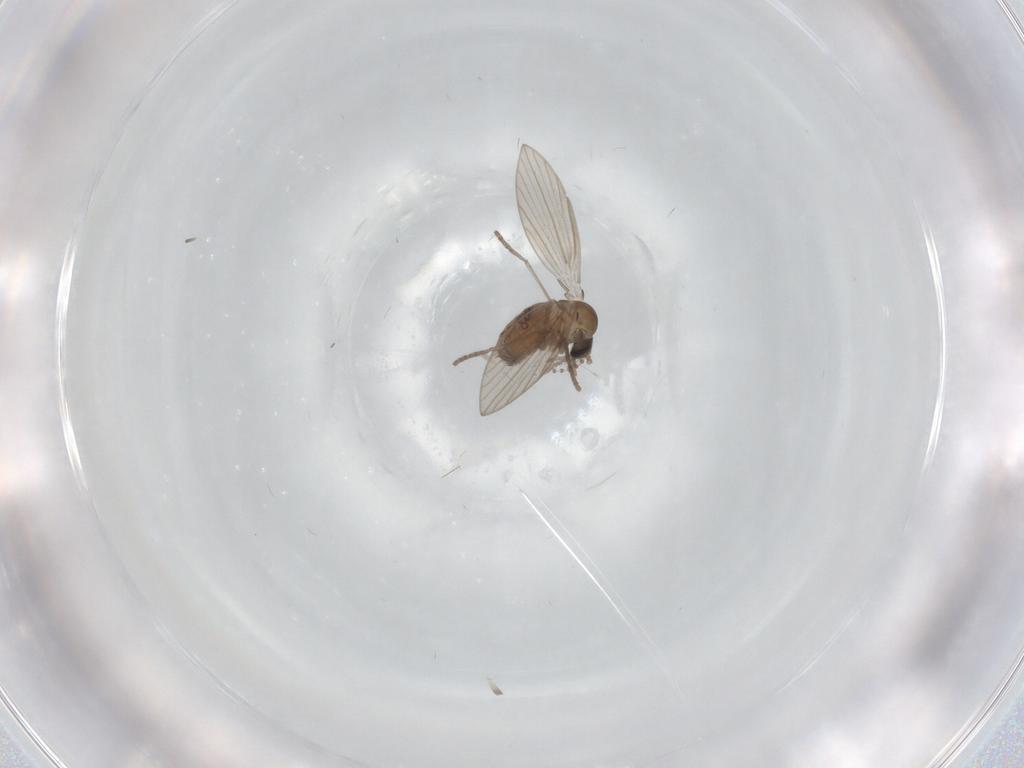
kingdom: Animalia
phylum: Arthropoda
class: Insecta
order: Diptera
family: Psychodidae
